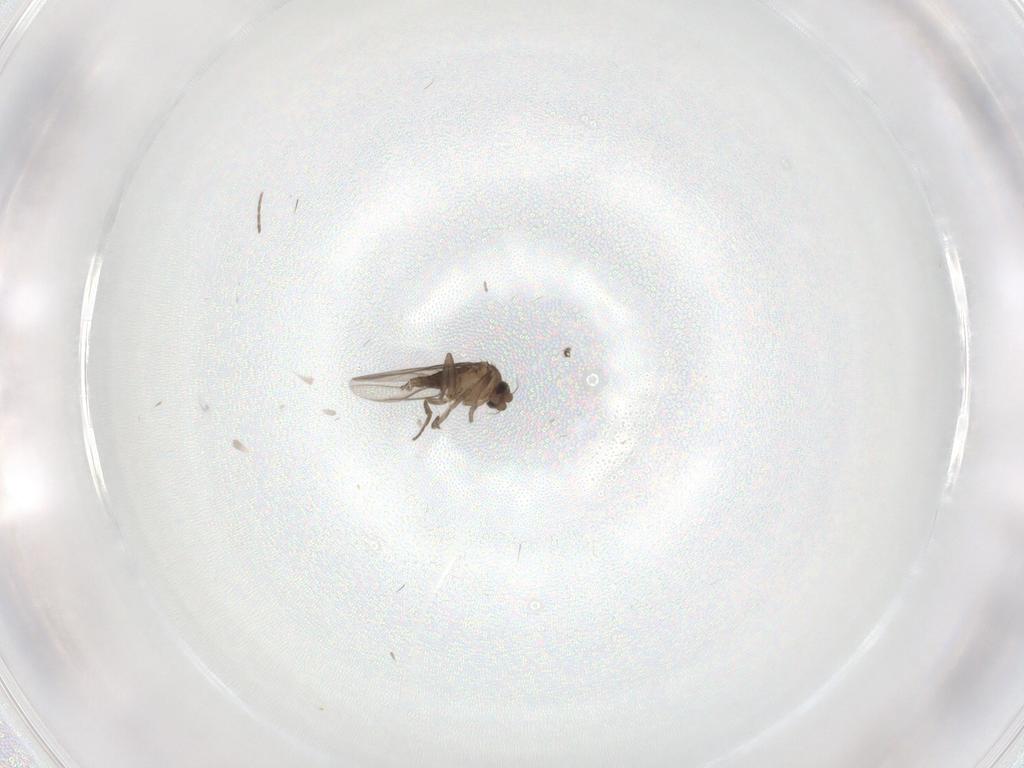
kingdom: Animalia
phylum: Arthropoda
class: Insecta
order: Diptera
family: Phoridae
